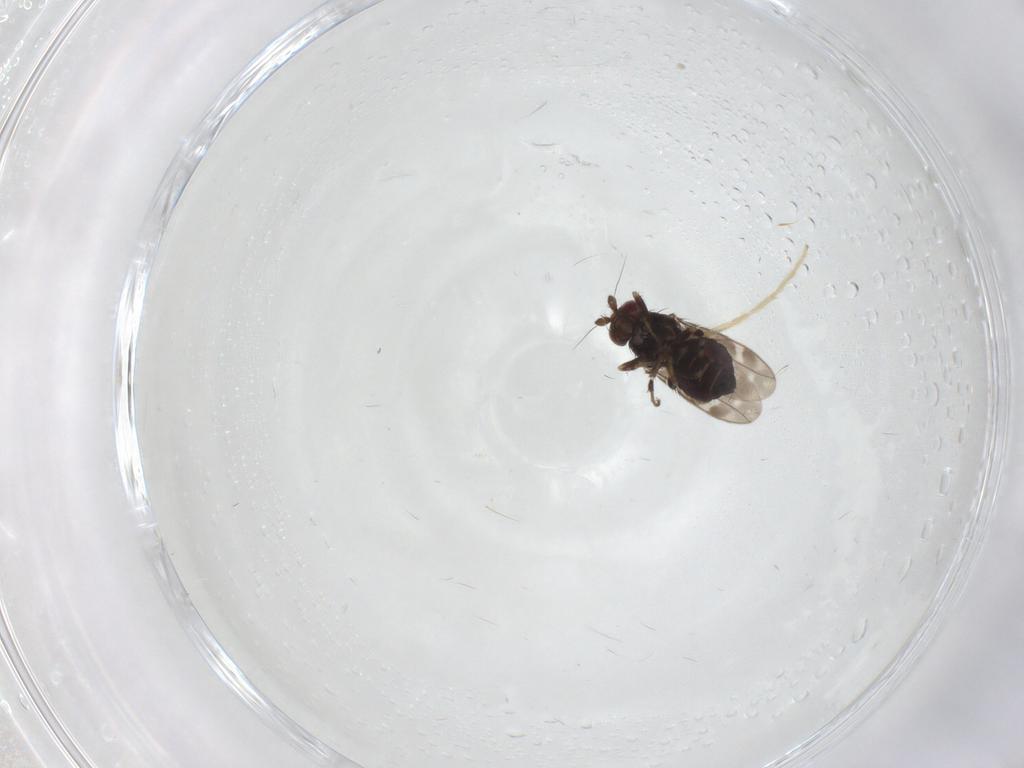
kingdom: Animalia
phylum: Arthropoda
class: Insecta
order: Diptera
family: Sphaeroceridae
